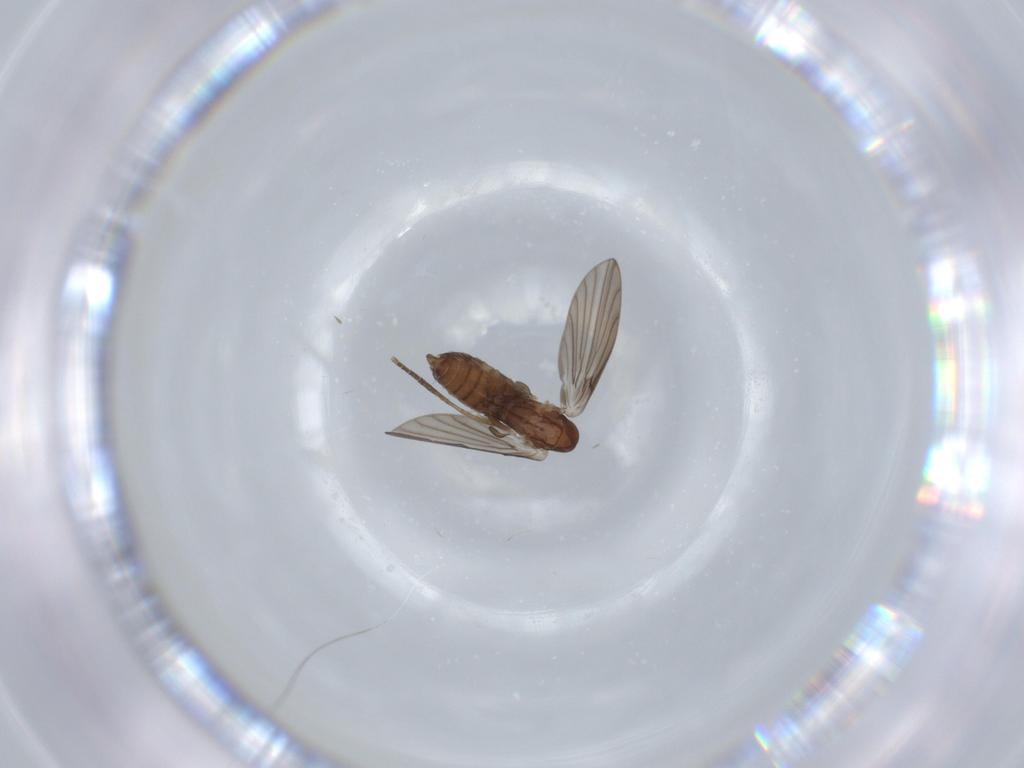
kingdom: Animalia
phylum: Arthropoda
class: Insecta
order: Diptera
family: Psychodidae
